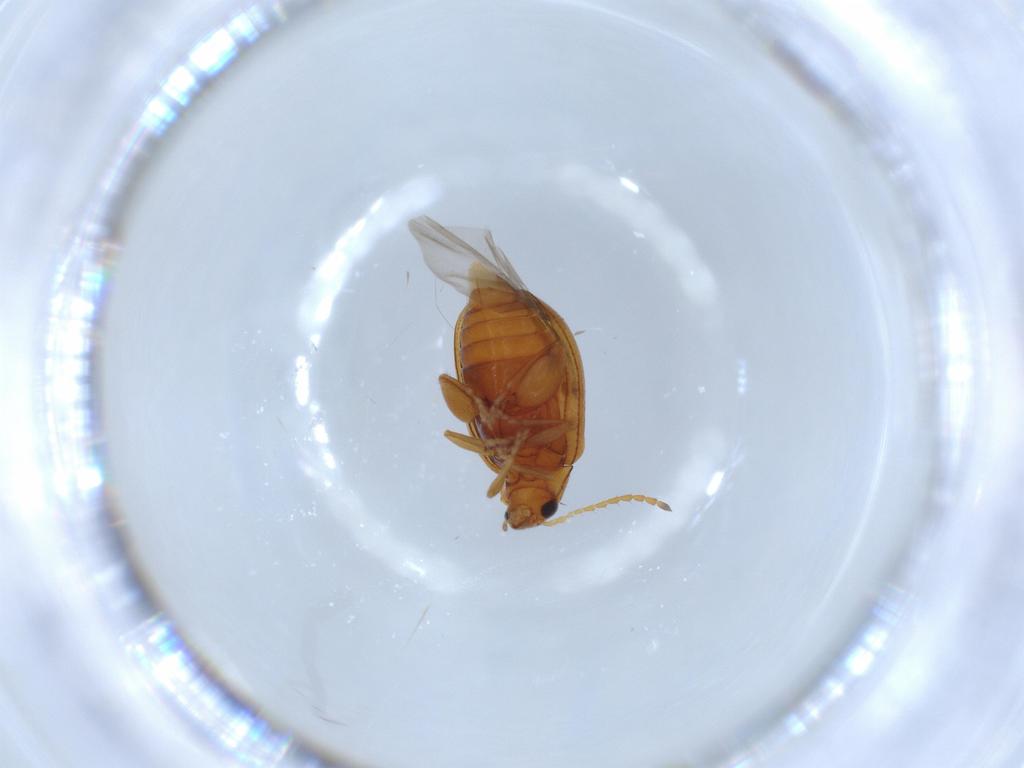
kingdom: Animalia
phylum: Arthropoda
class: Insecta
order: Coleoptera
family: Chrysomelidae
